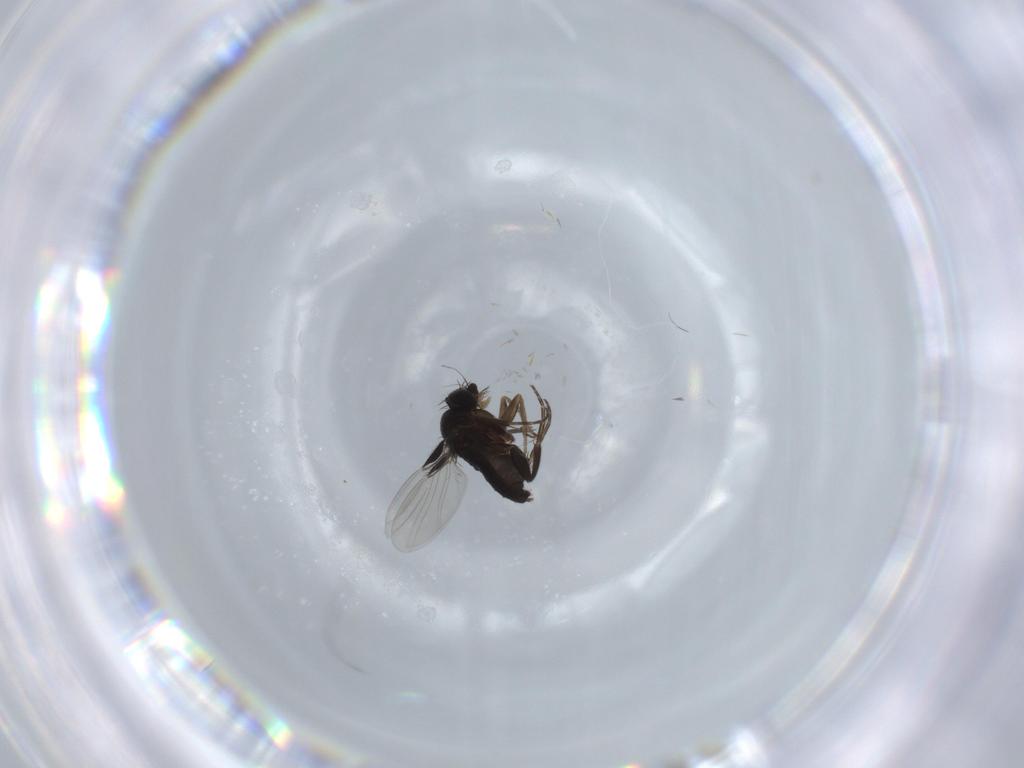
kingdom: Animalia
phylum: Arthropoda
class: Insecta
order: Diptera
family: Phoridae
